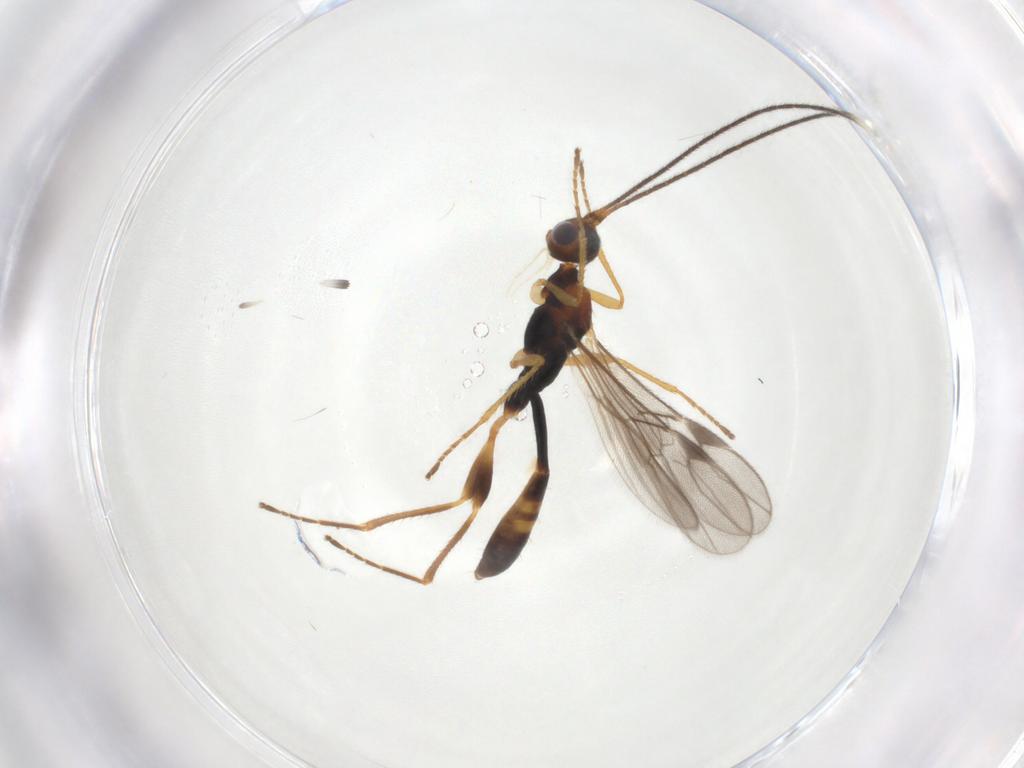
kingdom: Animalia
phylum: Arthropoda
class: Insecta
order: Hymenoptera
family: Braconidae
